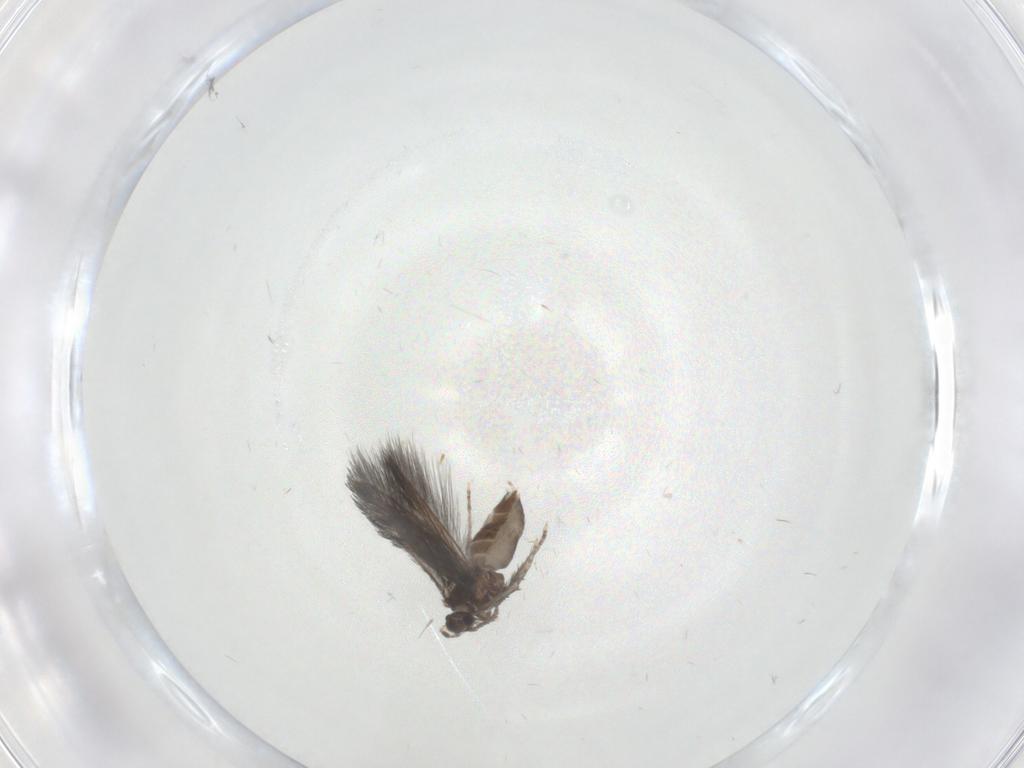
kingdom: Animalia
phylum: Arthropoda
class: Insecta
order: Trichoptera
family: Hydroptilidae
